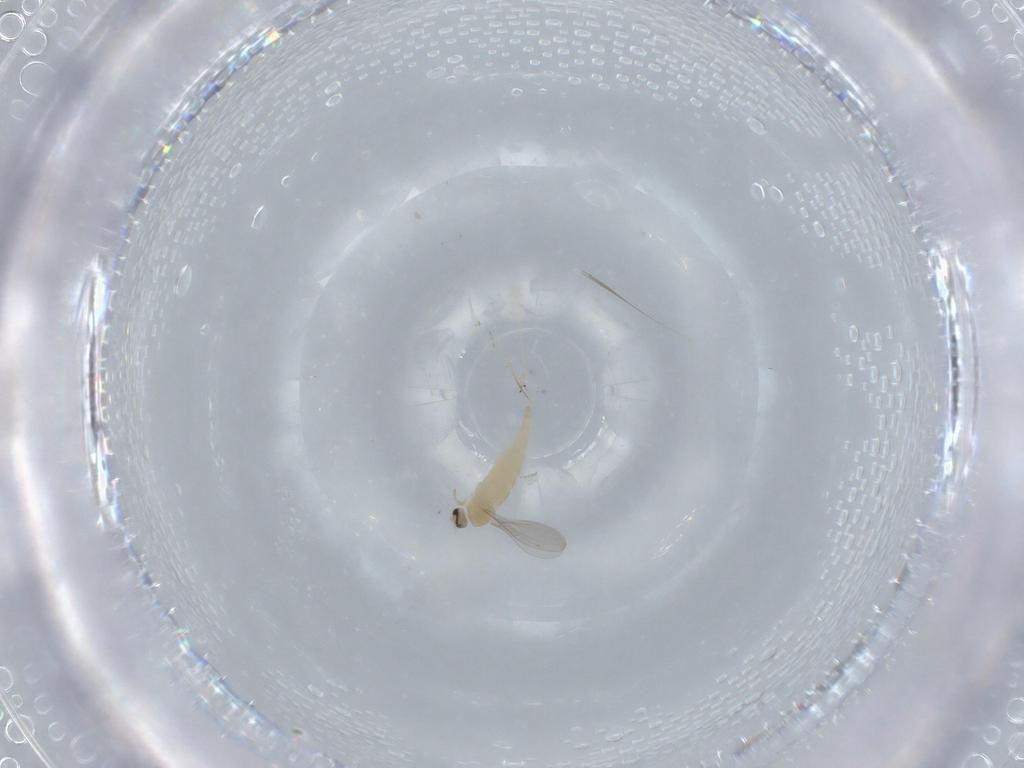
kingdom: Animalia
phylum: Arthropoda
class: Insecta
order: Diptera
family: Cecidomyiidae
